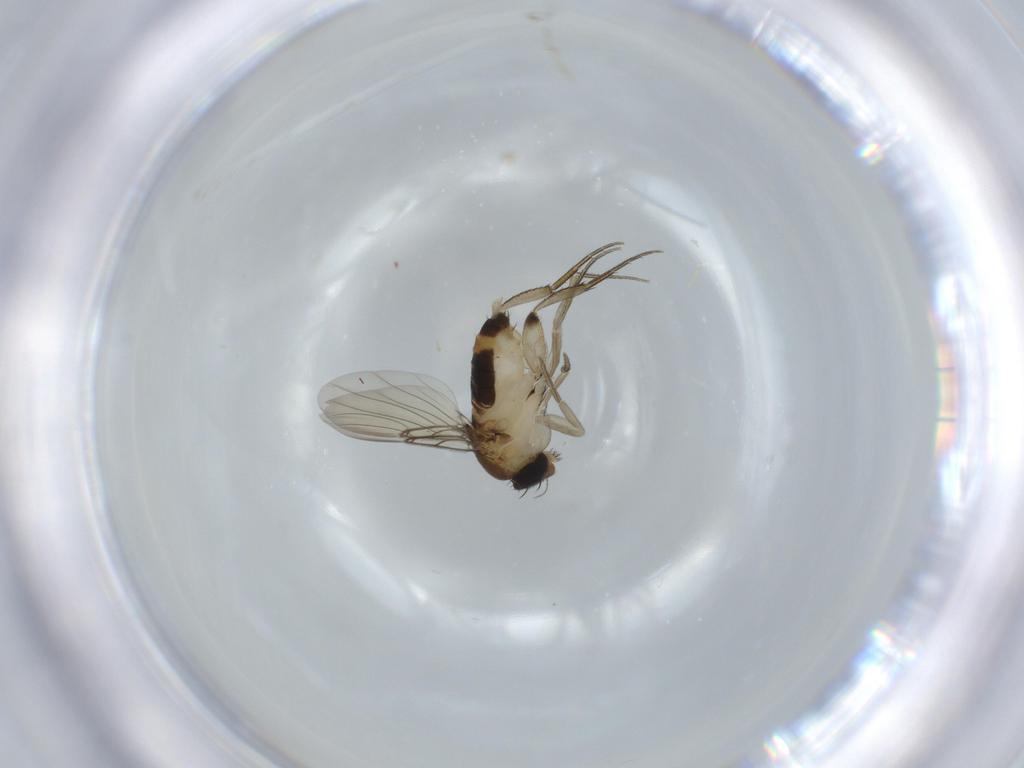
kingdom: Animalia
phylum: Arthropoda
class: Insecta
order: Diptera
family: Phoridae
